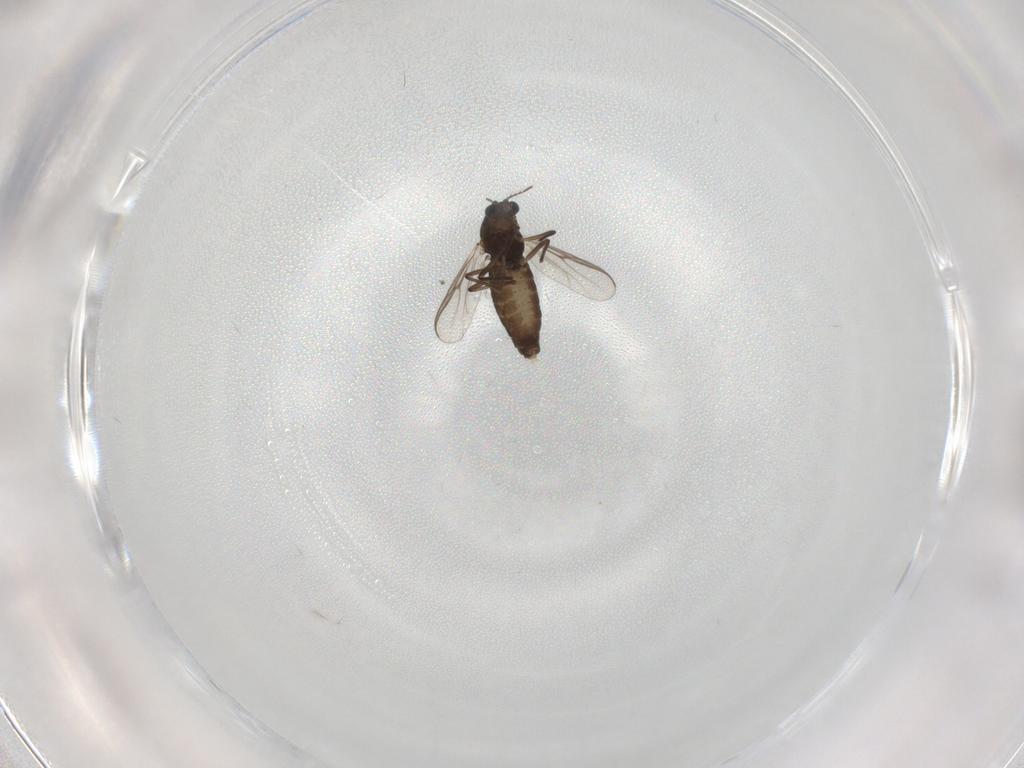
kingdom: Animalia
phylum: Arthropoda
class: Insecta
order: Diptera
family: Chironomidae
